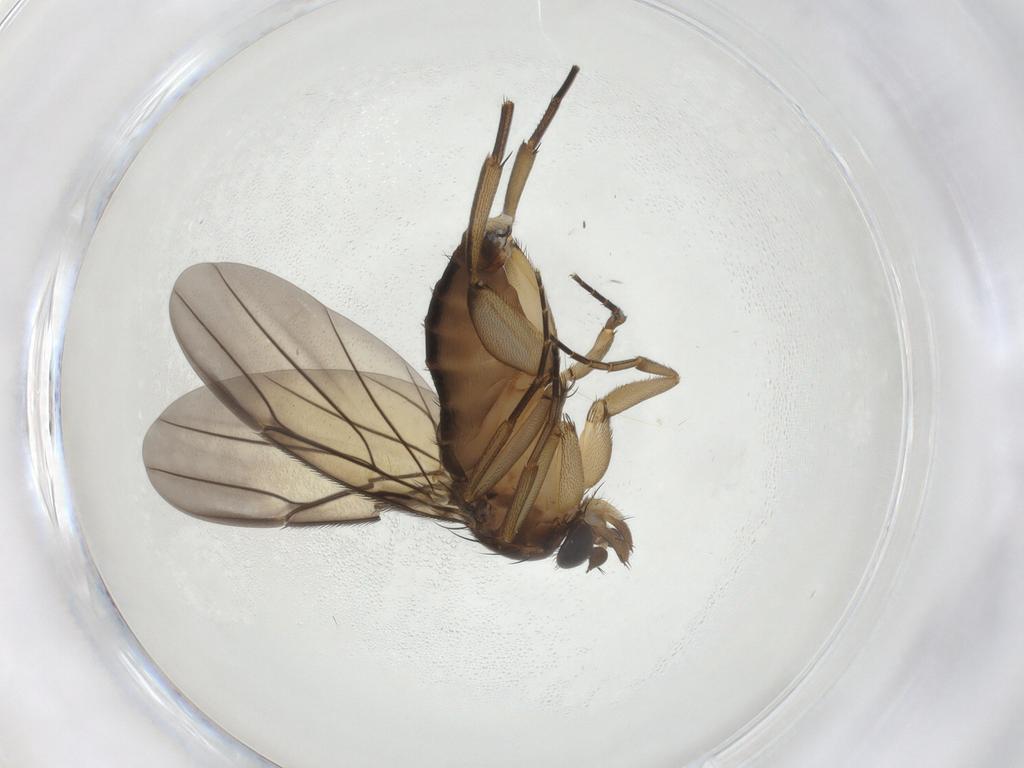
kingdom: Animalia
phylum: Arthropoda
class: Insecta
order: Diptera
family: Phoridae
